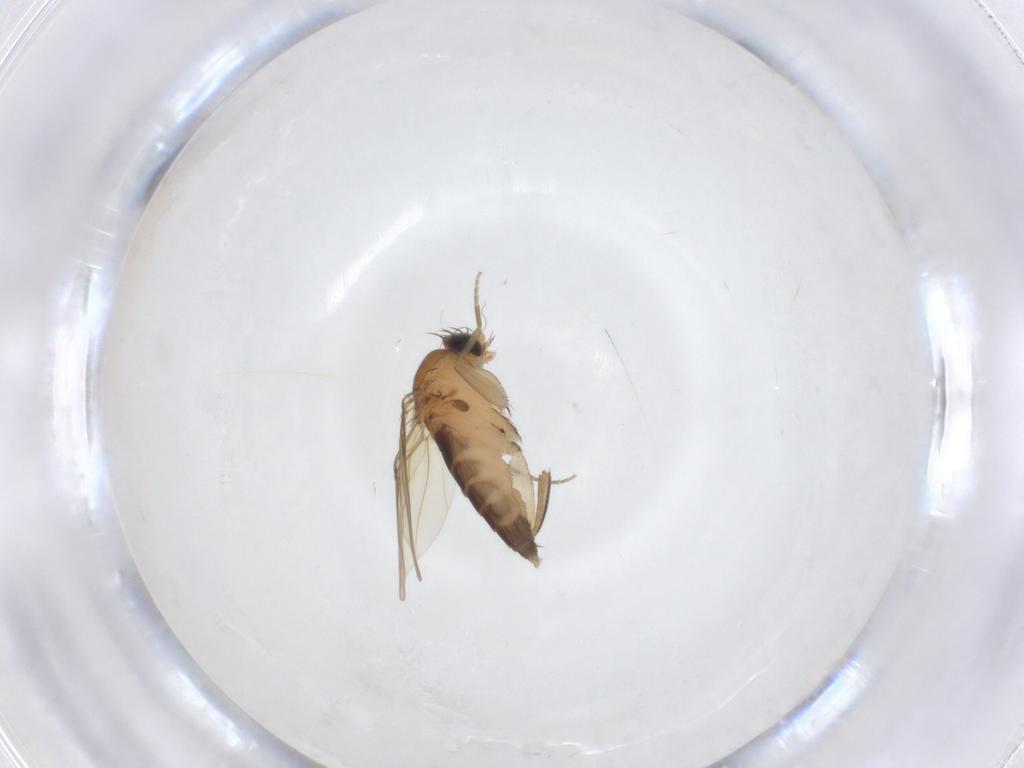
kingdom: Animalia
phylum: Arthropoda
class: Insecta
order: Diptera
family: Phoridae
